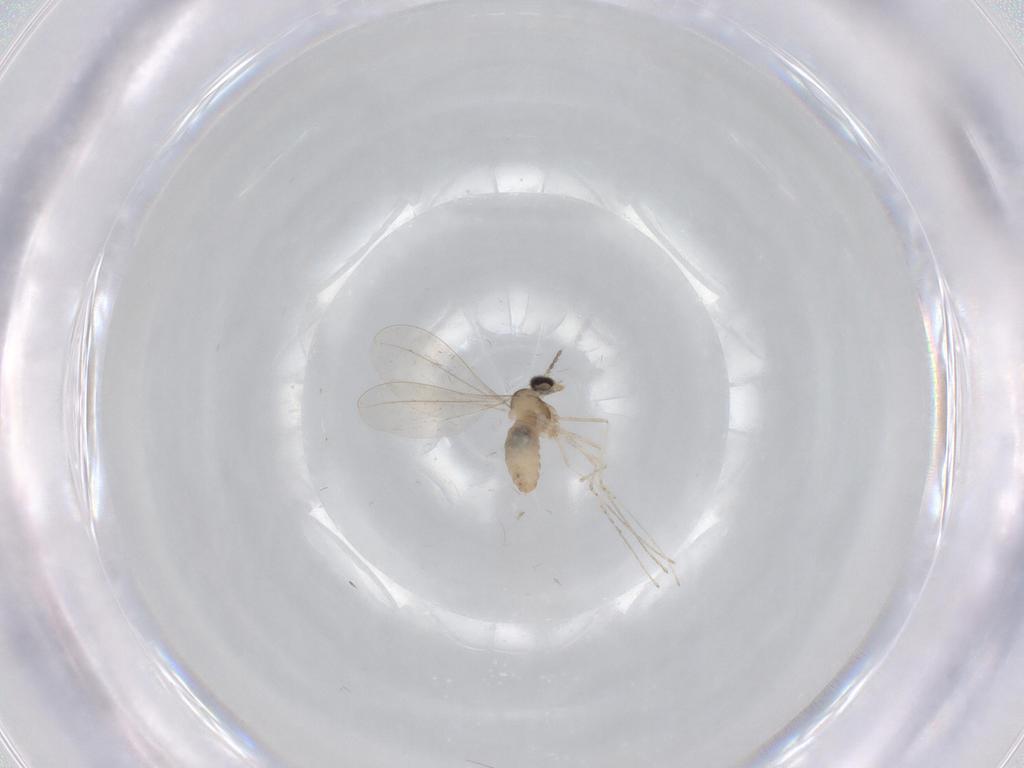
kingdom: Animalia
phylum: Arthropoda
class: Insecta
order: Diptera
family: Cecidomyiidae
